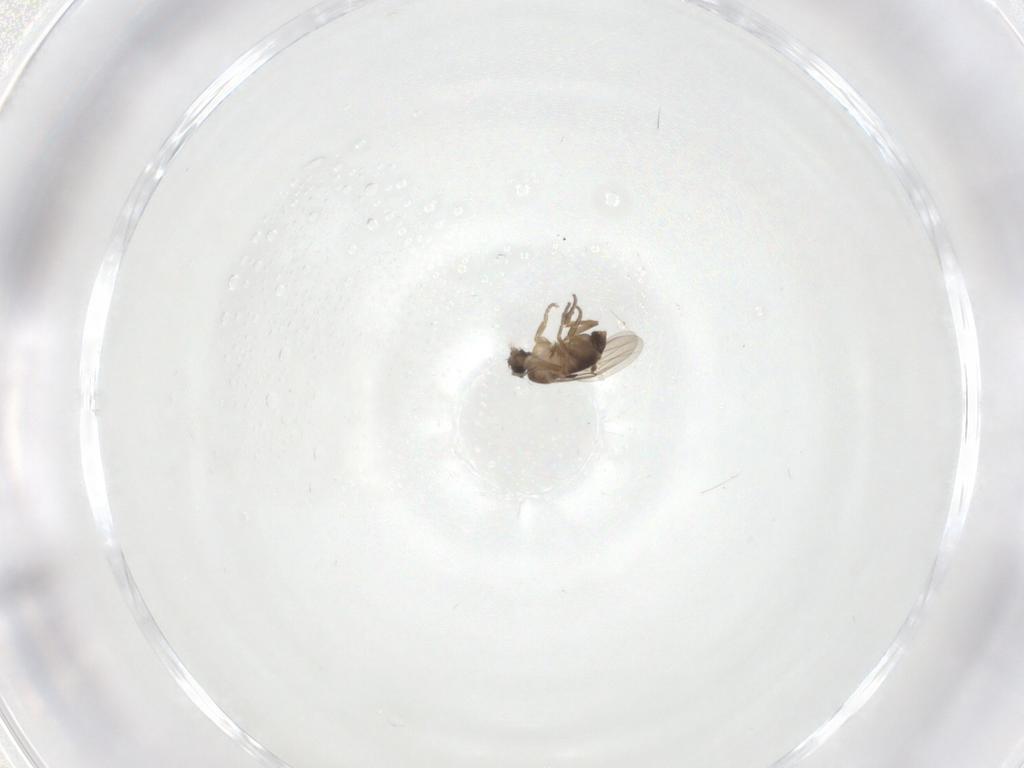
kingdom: Animalia
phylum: Arthropoda
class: Insecta
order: Diptera
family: Phoridae
